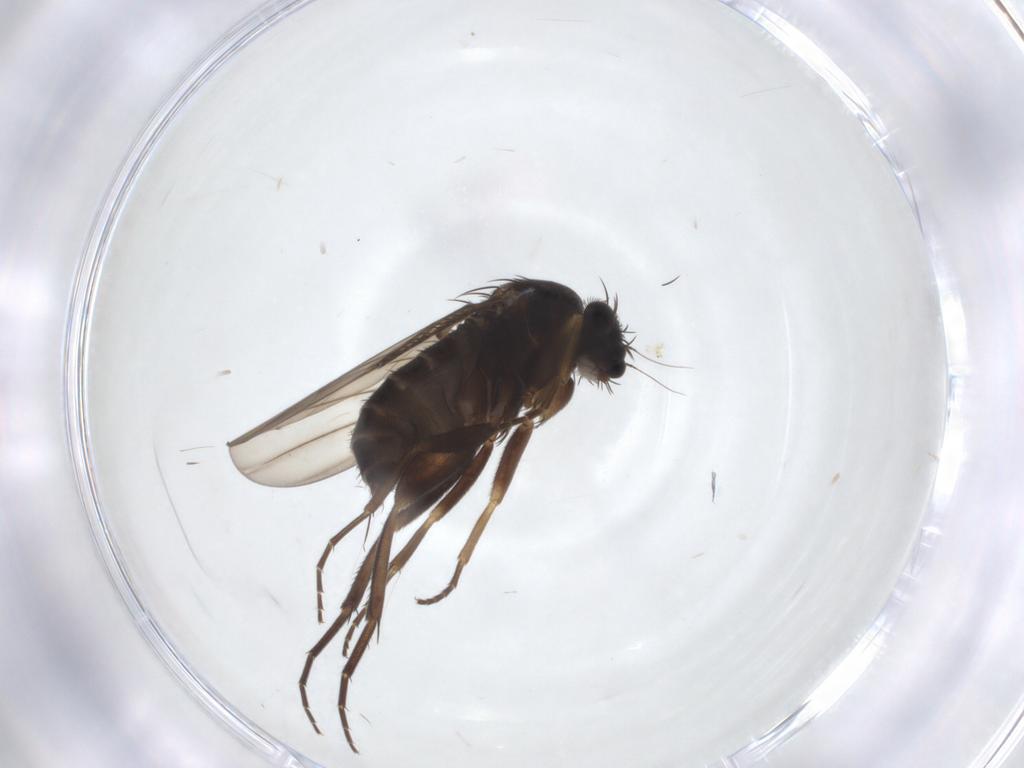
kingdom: Animalia
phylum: Arthropoda
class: Insecta
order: Diptera
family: Phoridae
